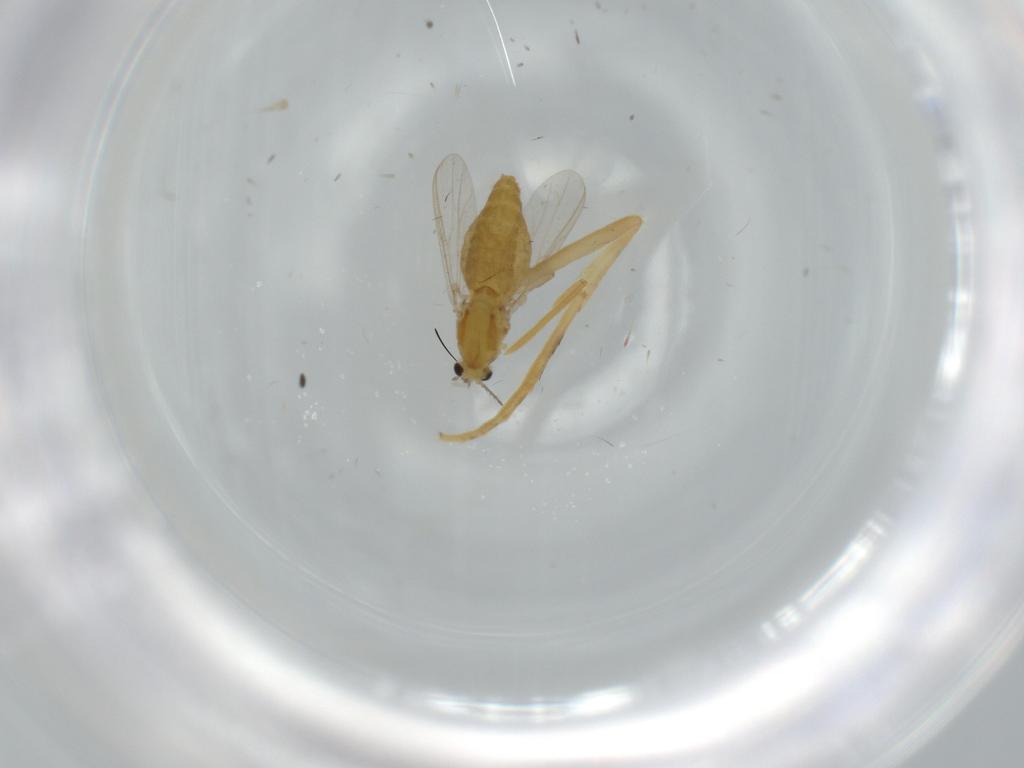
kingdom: Animalia
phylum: Arthropoda
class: Insecta
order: Diptera
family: Chironomidae
